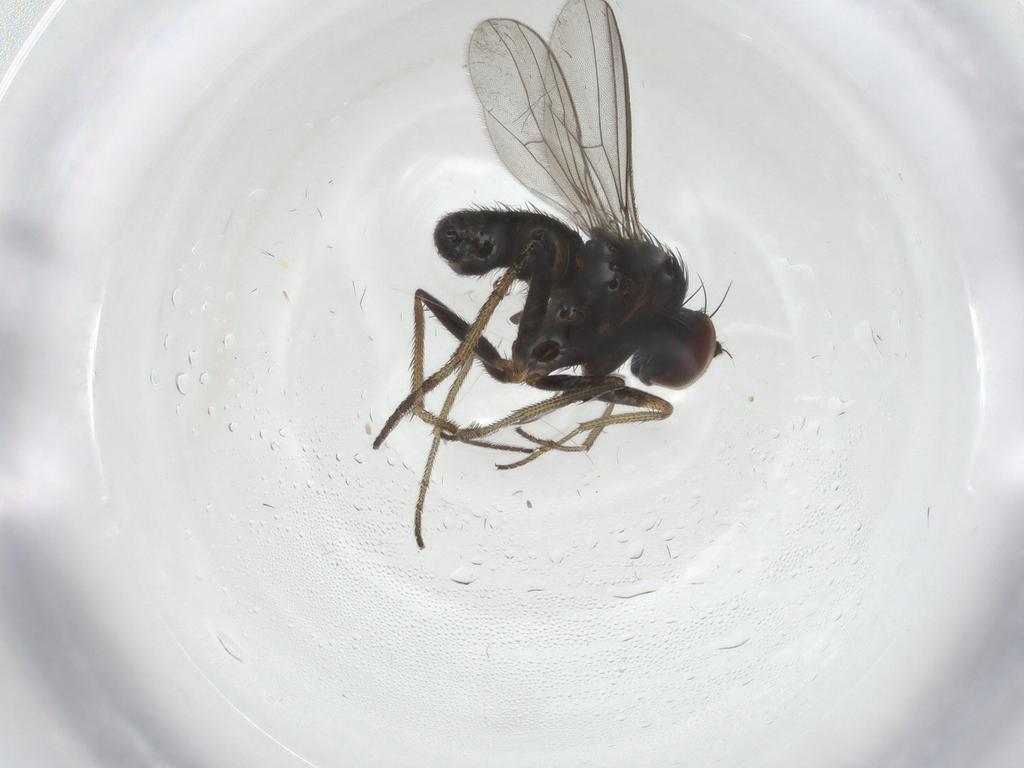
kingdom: Animalia
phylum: Arthropoda
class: Insecta
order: Diptera
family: Dolichopodidae
